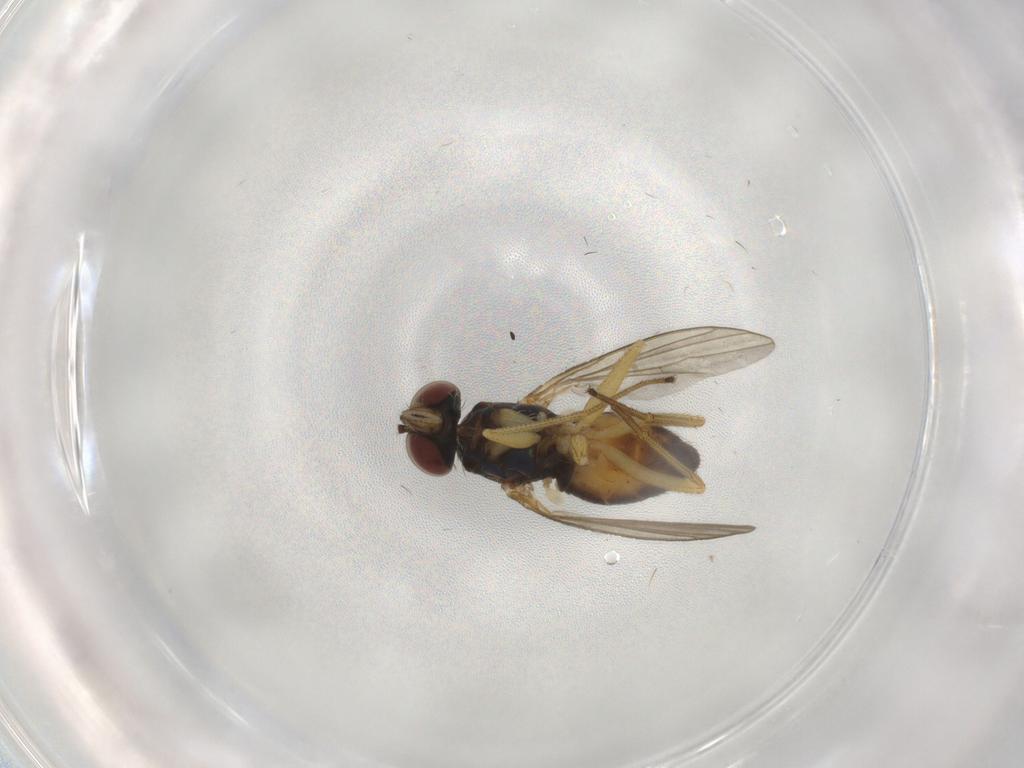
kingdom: Animalia
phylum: Arthropoda
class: Insecta
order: Diptera
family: Dolichopodidae
